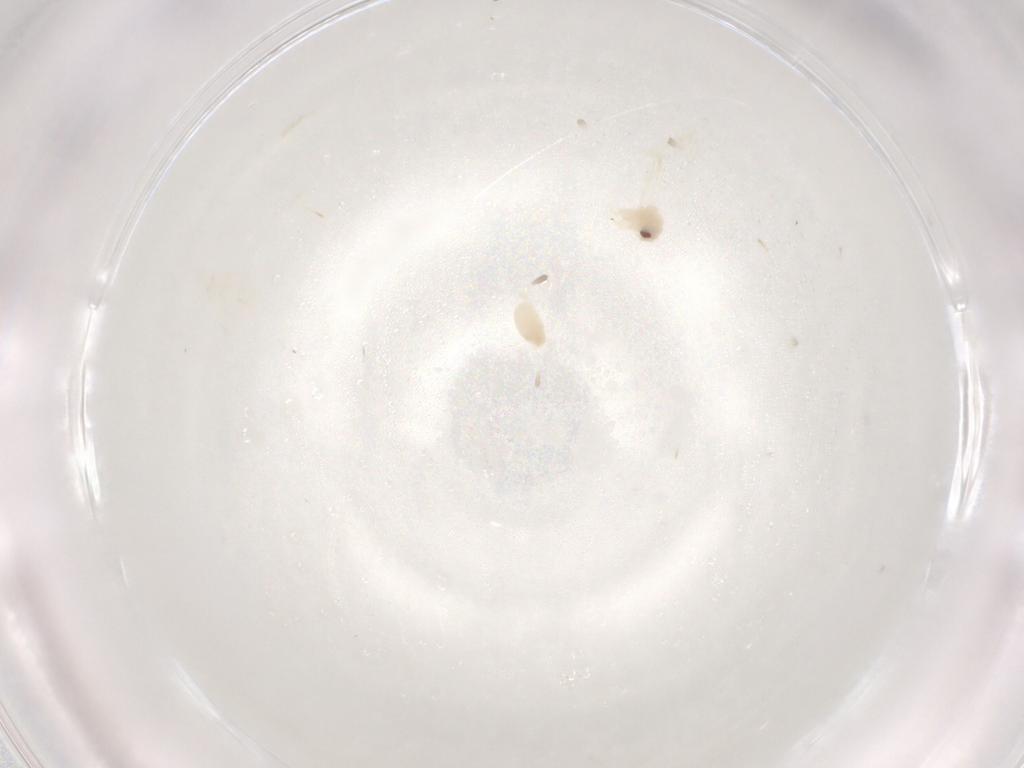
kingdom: Animalia
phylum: Arthropoda
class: Insecta
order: Hemiptera
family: Aleyrodidae
